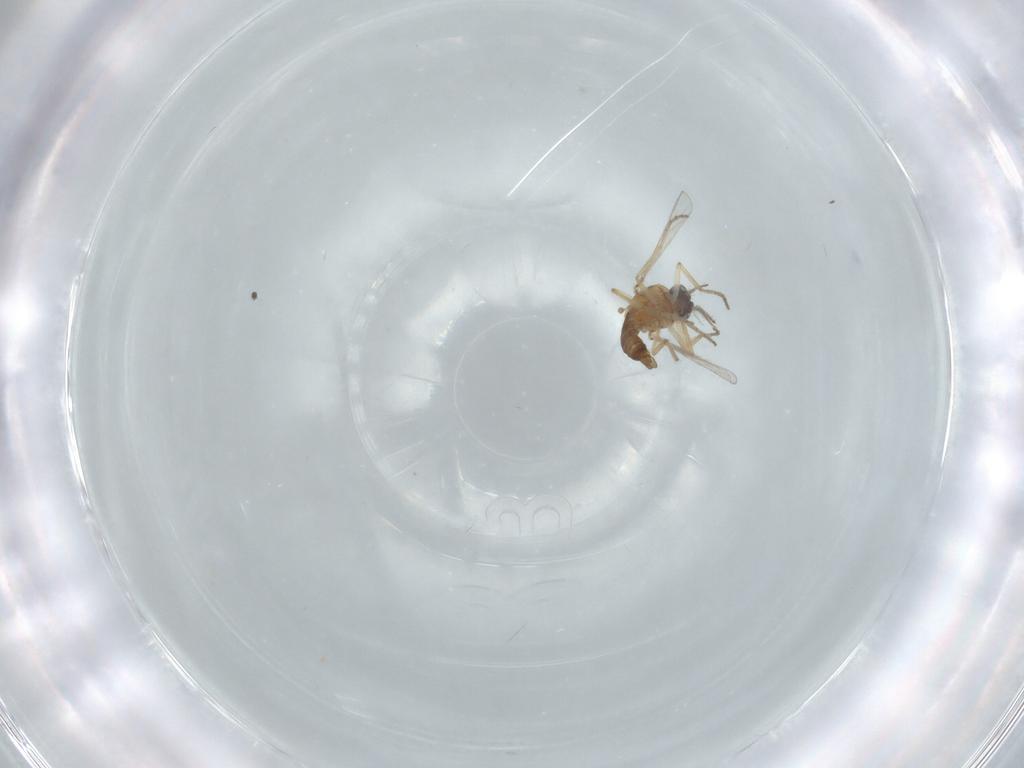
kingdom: Animalia
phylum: Arthropoda
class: Insecta
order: Diptera
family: Ceratopogonidae
